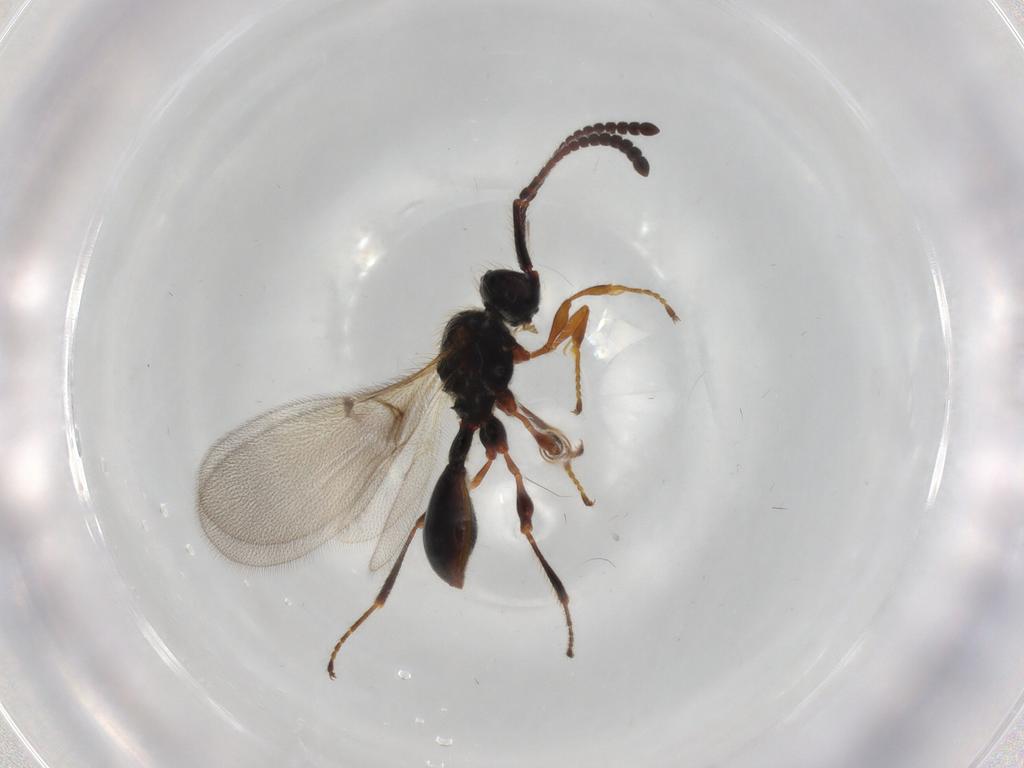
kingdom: Animalia
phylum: Arthropoda
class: Insecta
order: Hymenoptera
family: Diapriidae
